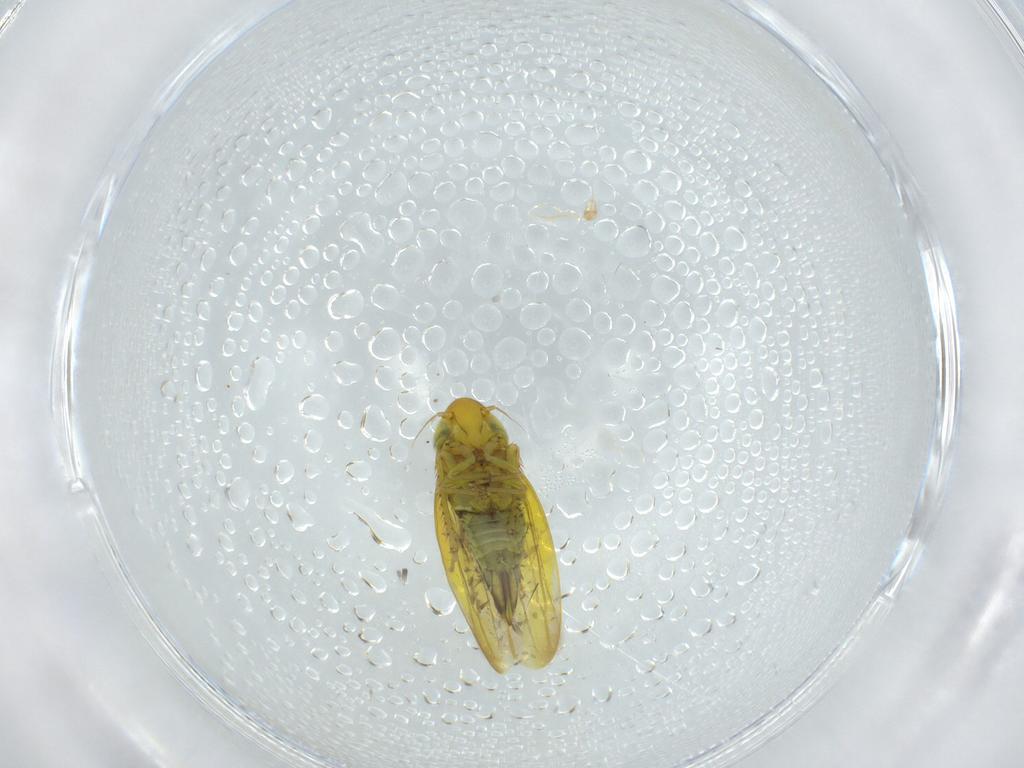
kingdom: Animalia
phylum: Arthropoda
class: Insecta
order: Hemiptera
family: Cicadellidae
